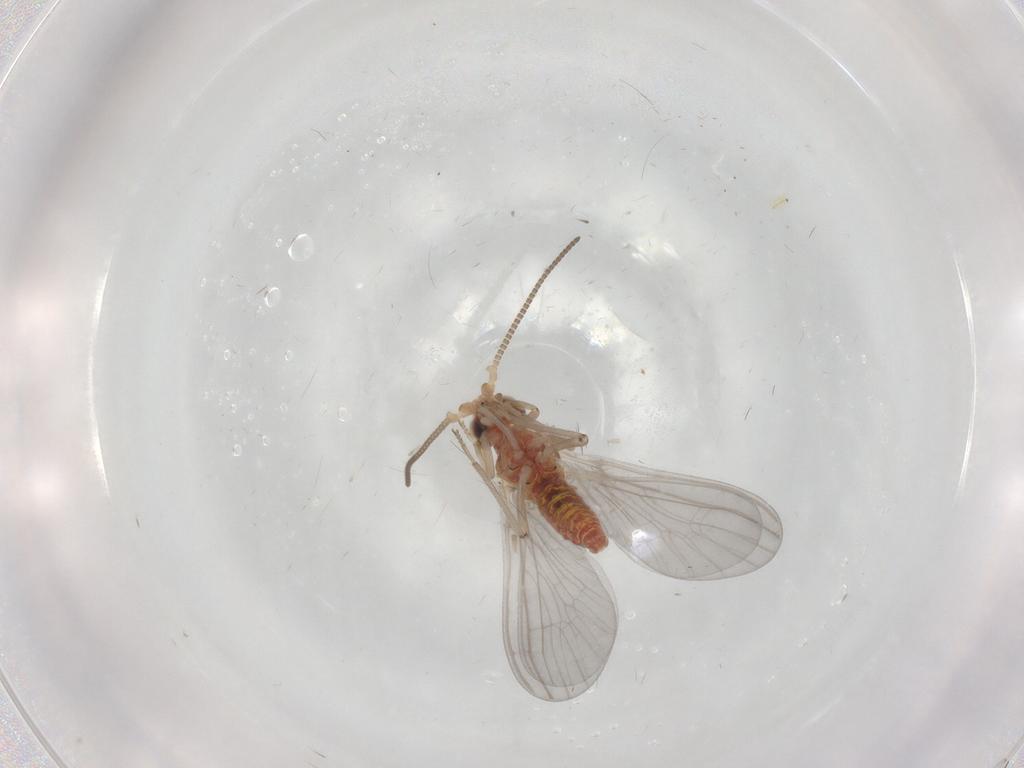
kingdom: Animalia
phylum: Arthropoda
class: Insecta
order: Neuroptera
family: Coniopterygidae
